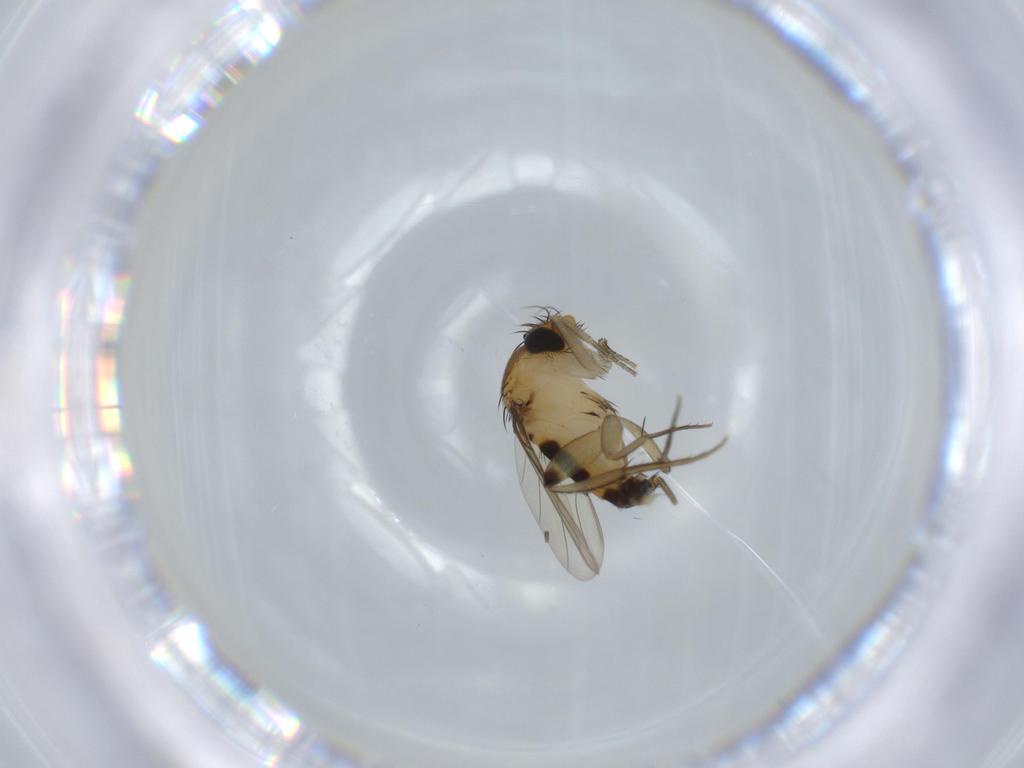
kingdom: Animalia
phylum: Arthropoda
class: Insecta
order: Diptera
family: Phoridae
